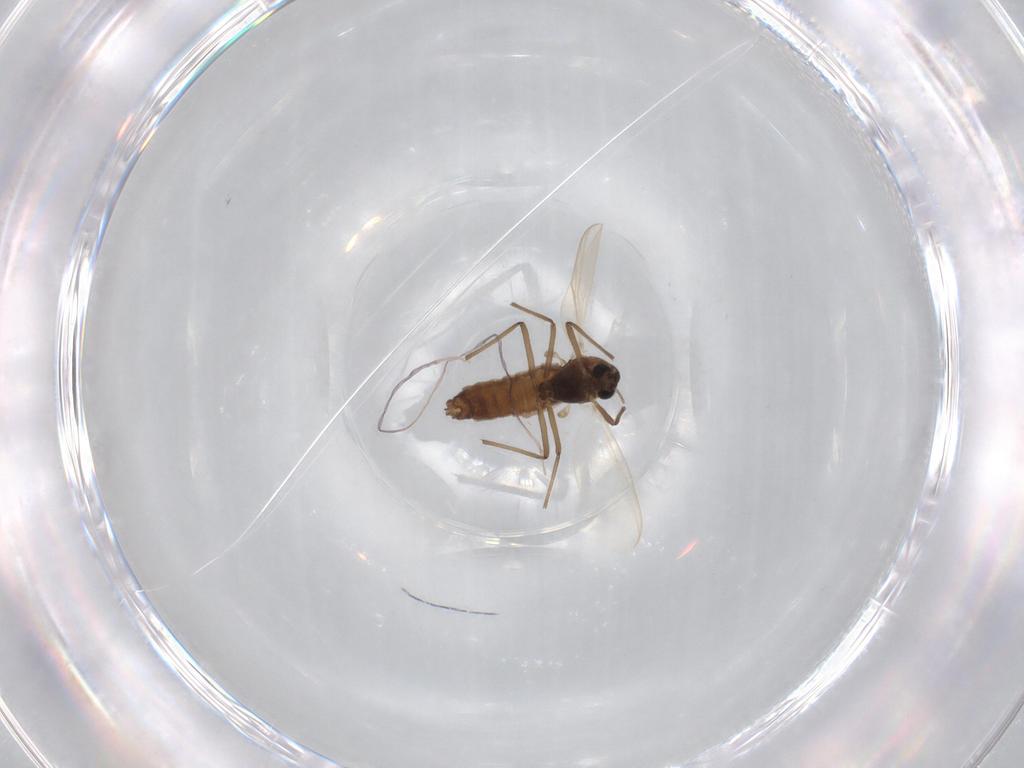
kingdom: Animalia
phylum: Arthropoda
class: Insecta
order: Diptera
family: Chironomidae
